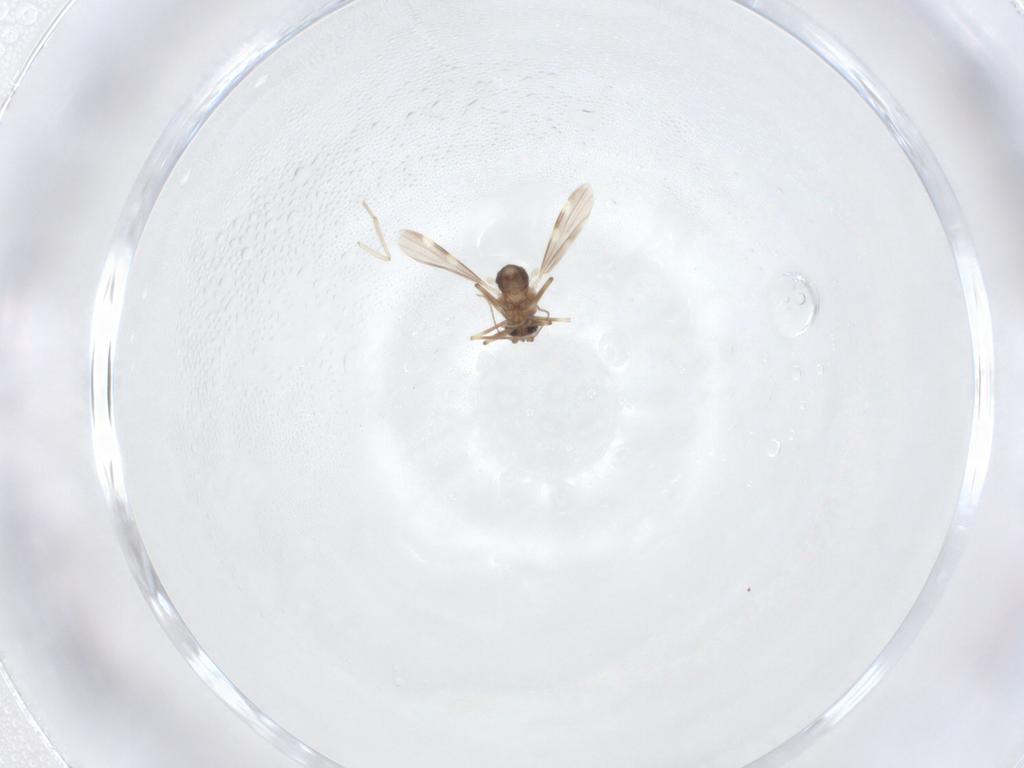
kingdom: Animalia
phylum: Arthropoda
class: Insecta
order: Diptera
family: Ceratopogonidae
